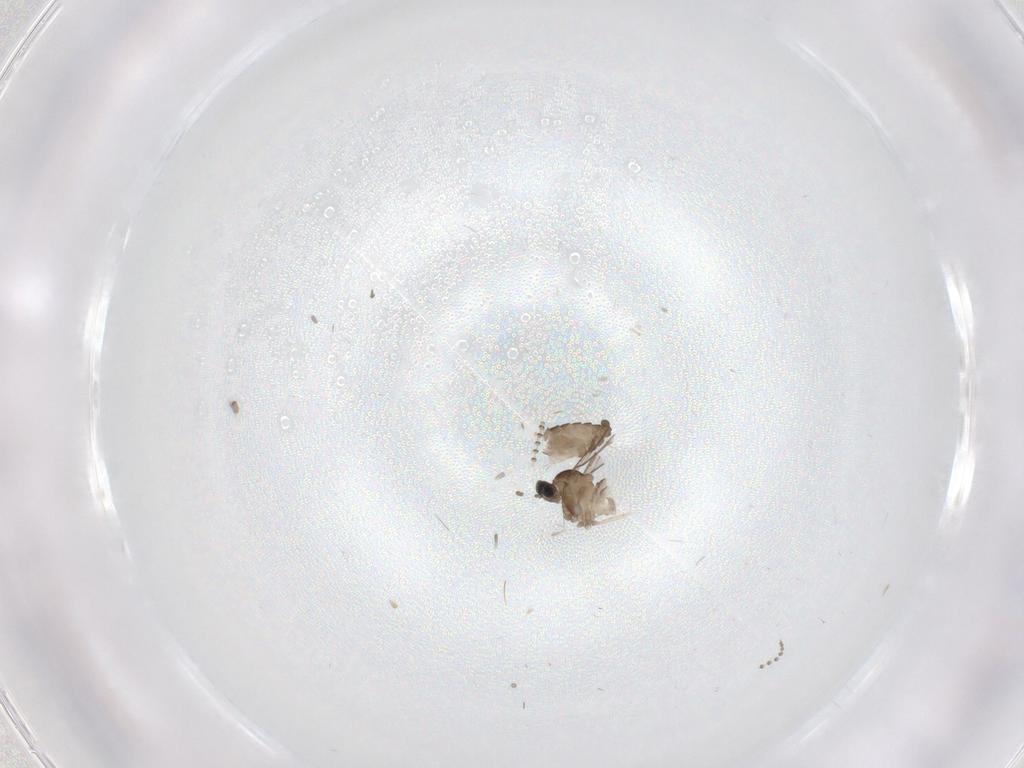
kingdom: Animalia
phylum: Arthropoda
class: Insecta
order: Diptera
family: Cecidomyiidae
